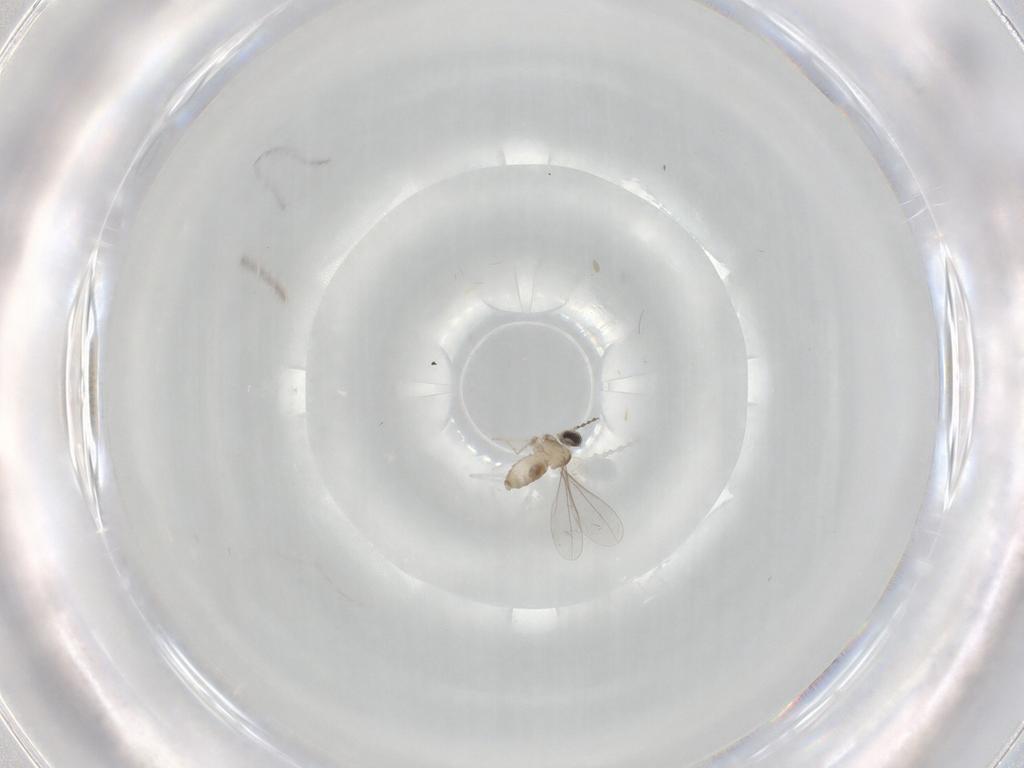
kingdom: Animalia
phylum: Arthropoda
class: Insecta
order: Diptera
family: Cecidomyiidae
